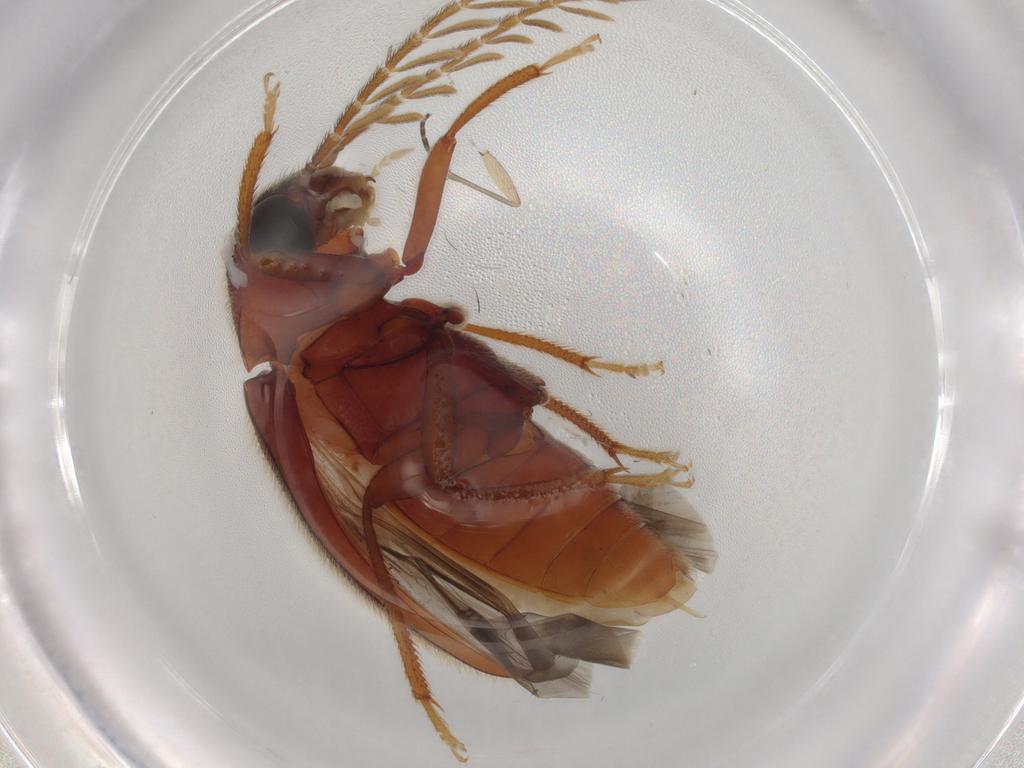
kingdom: Animalia
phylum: Arthropoda
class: Insecta
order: Coleoptera
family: Ptilodactylidae
